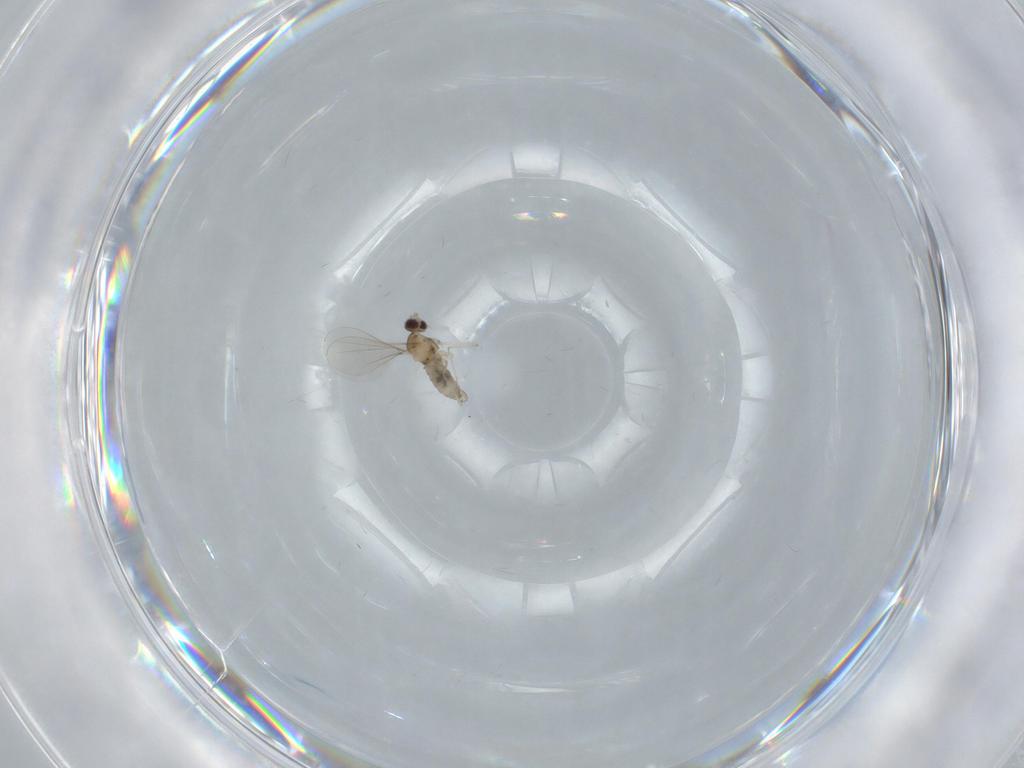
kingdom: Animalia
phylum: Arthropoda
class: Insecta
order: Diptera
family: Cecidomyiidae
